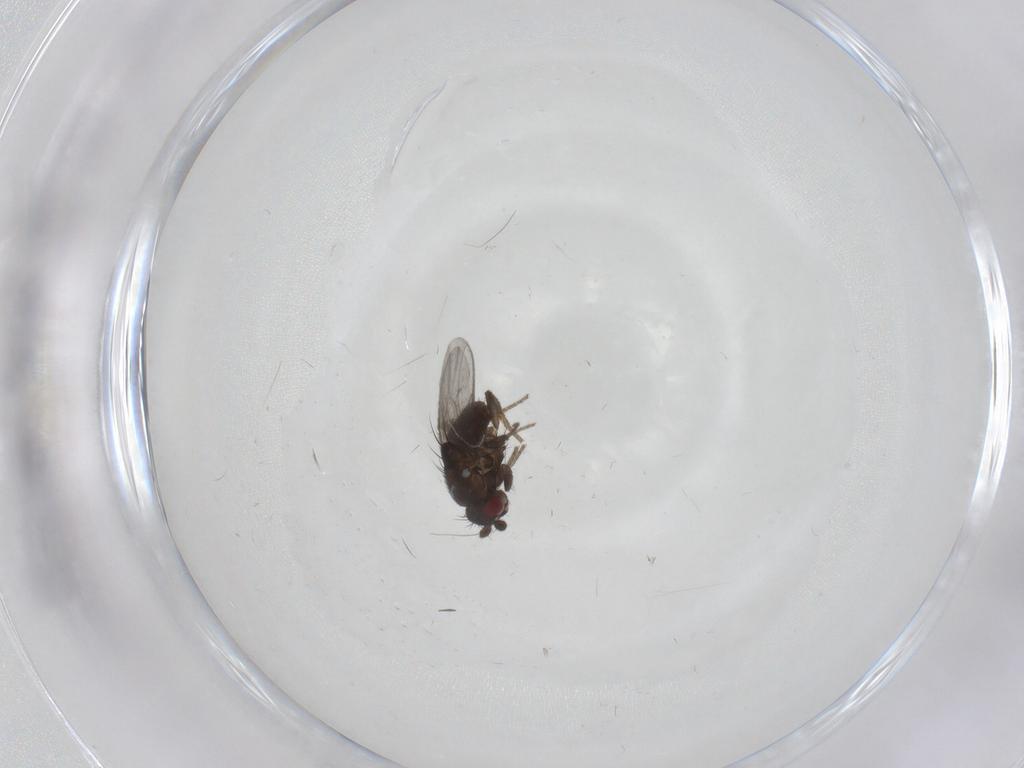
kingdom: Animalia
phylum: Arthropoda
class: Insecta
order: Diptera
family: Sphaeroceridae
